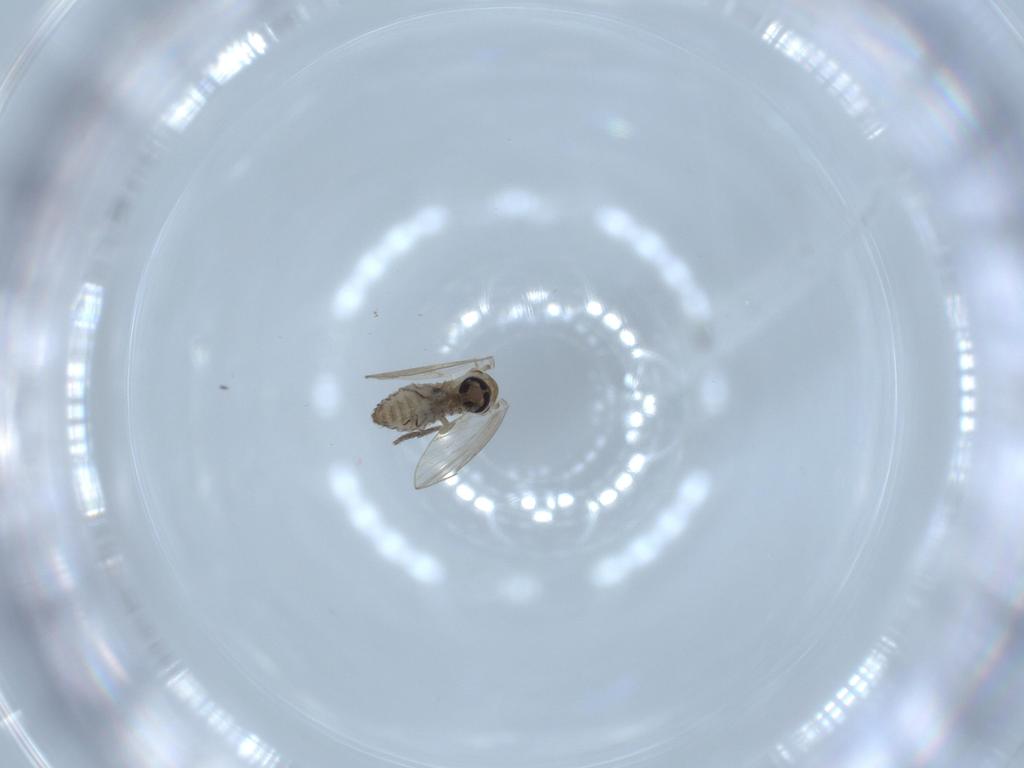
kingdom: Animalia
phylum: Arthropoda
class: Insecta
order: Diptera
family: Psychodidae
